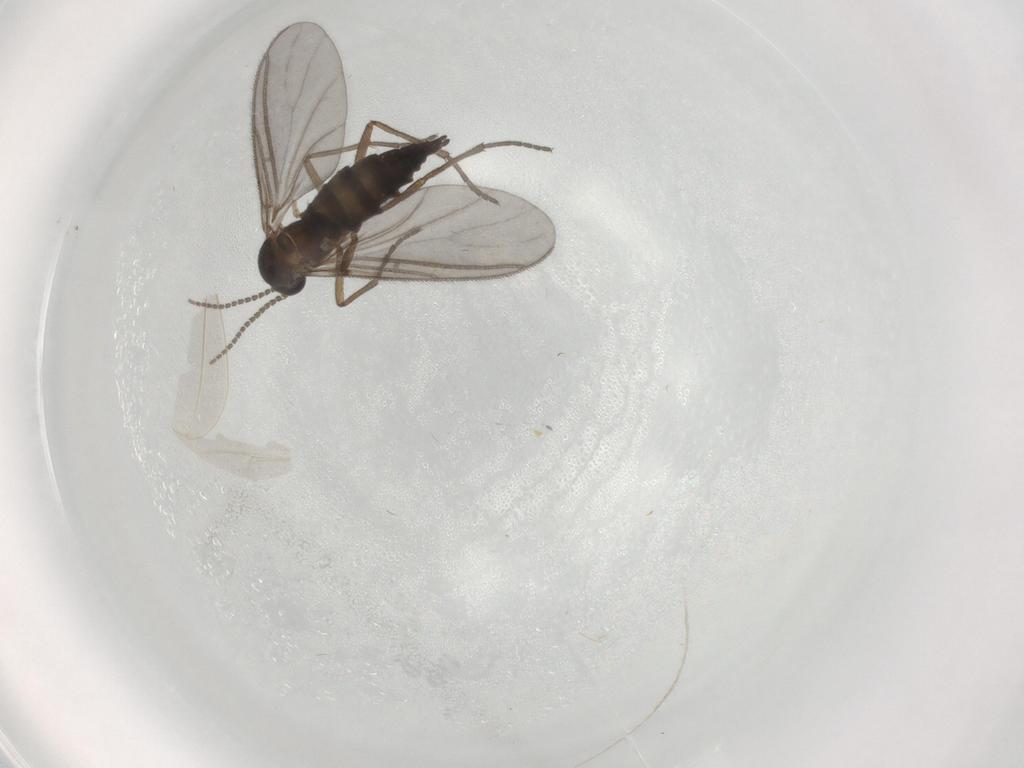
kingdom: Animalia
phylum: Arthropoda
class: Insecta
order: Diptera
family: Sciaridae
